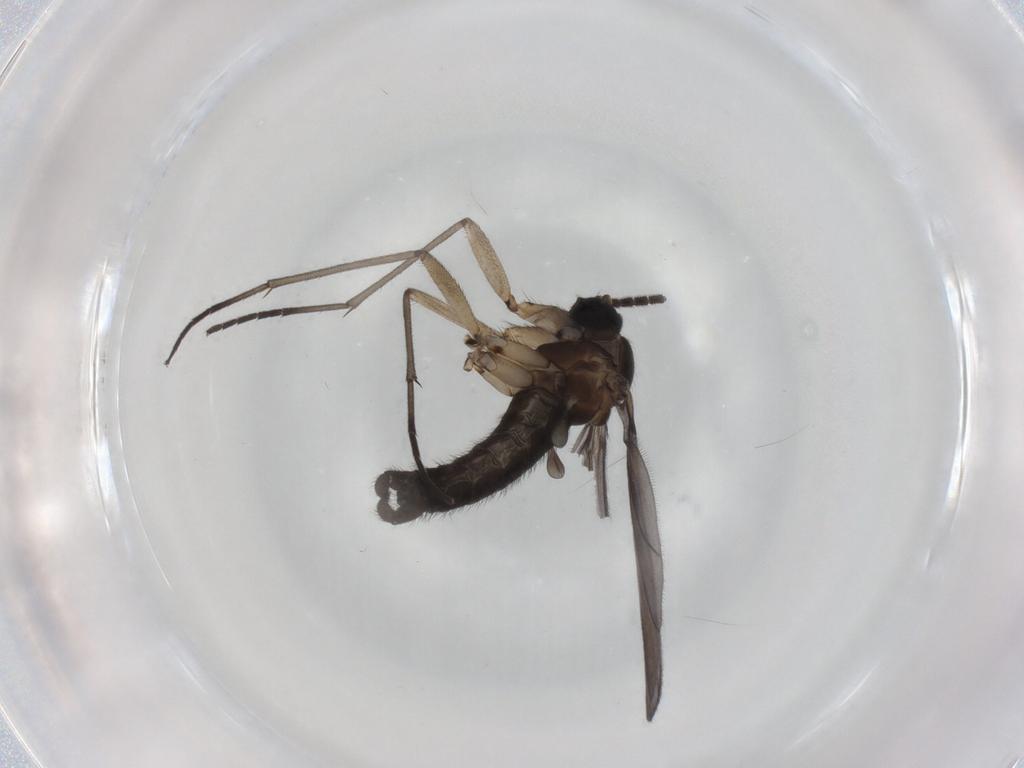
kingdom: Animalia
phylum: Arthropoda
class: Insecta
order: Diptera
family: Sciaridae
